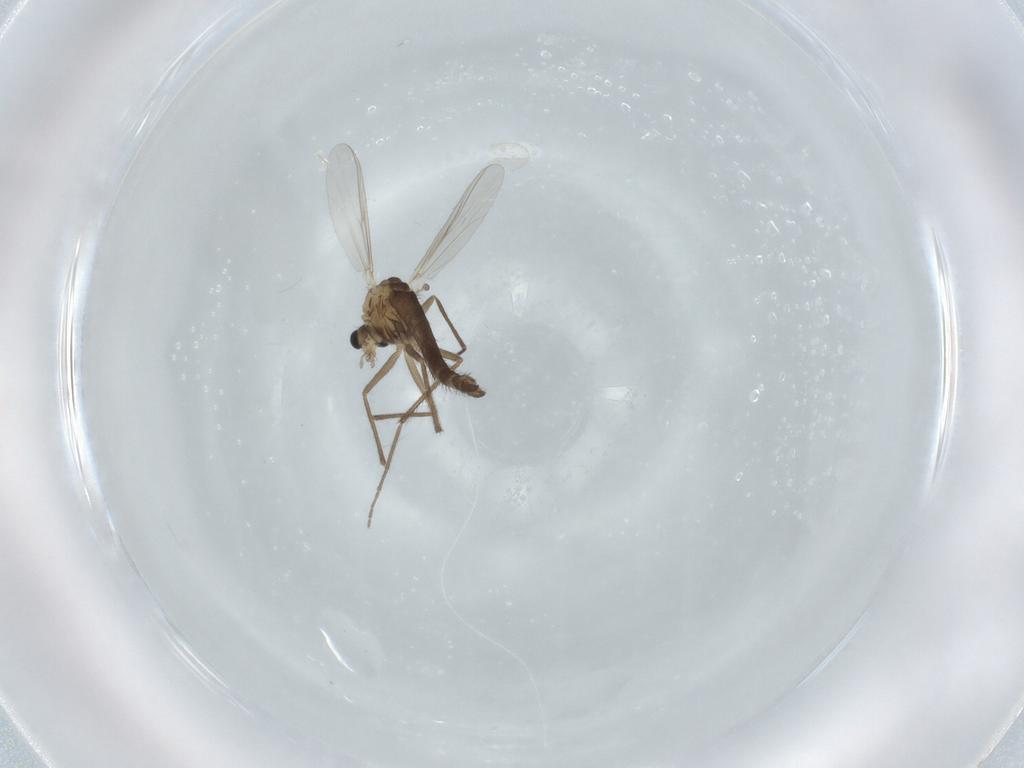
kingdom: Animalia
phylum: Arthropoda
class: Insecta
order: Diptera
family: Chironomidae
